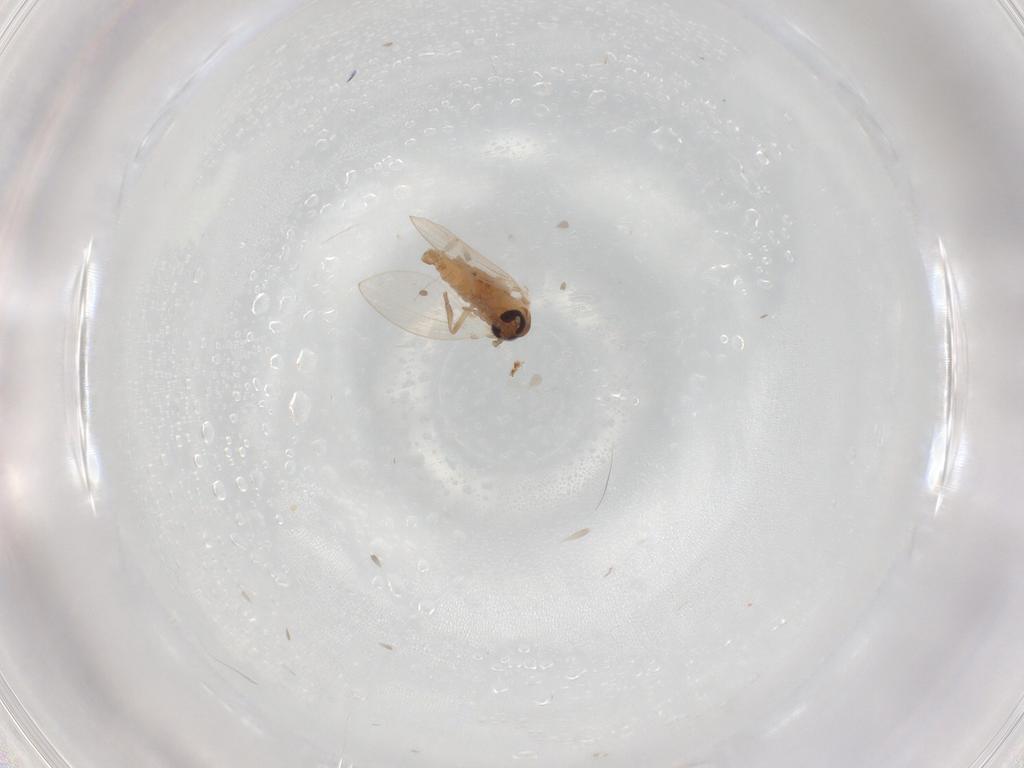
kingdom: Animalia
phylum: Arthropoda
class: Insecta
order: Diptera
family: Psychodidae
